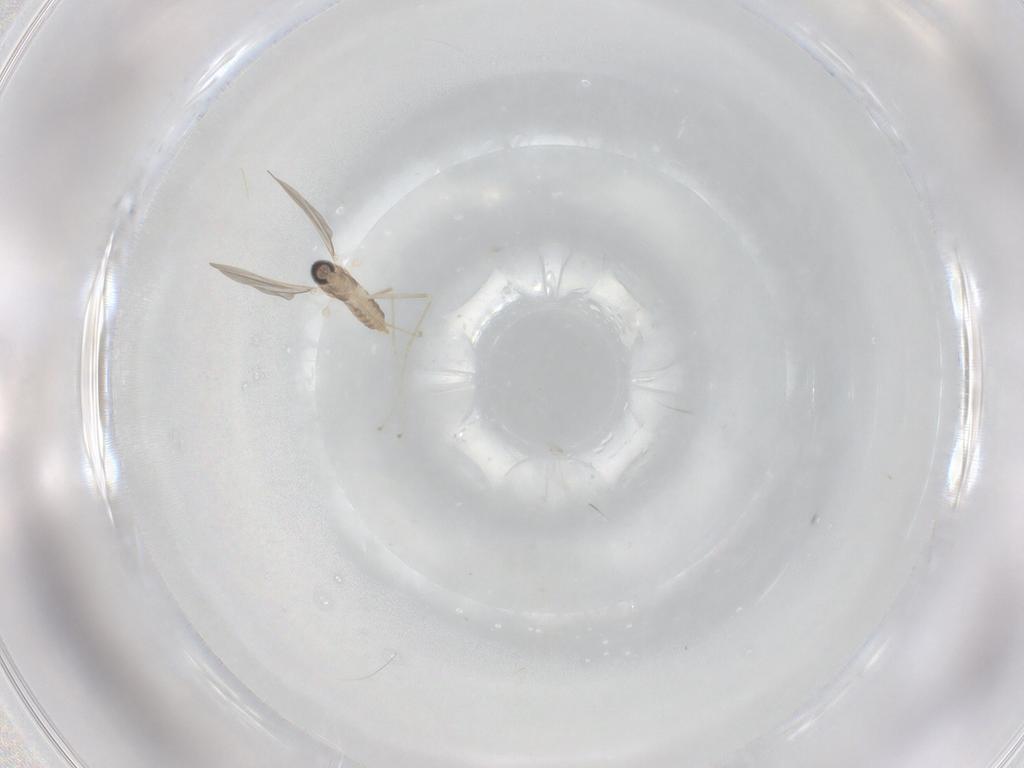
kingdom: Animalia
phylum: Arthropoda
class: Insecta
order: Diptera
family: Ceratopogonidae
